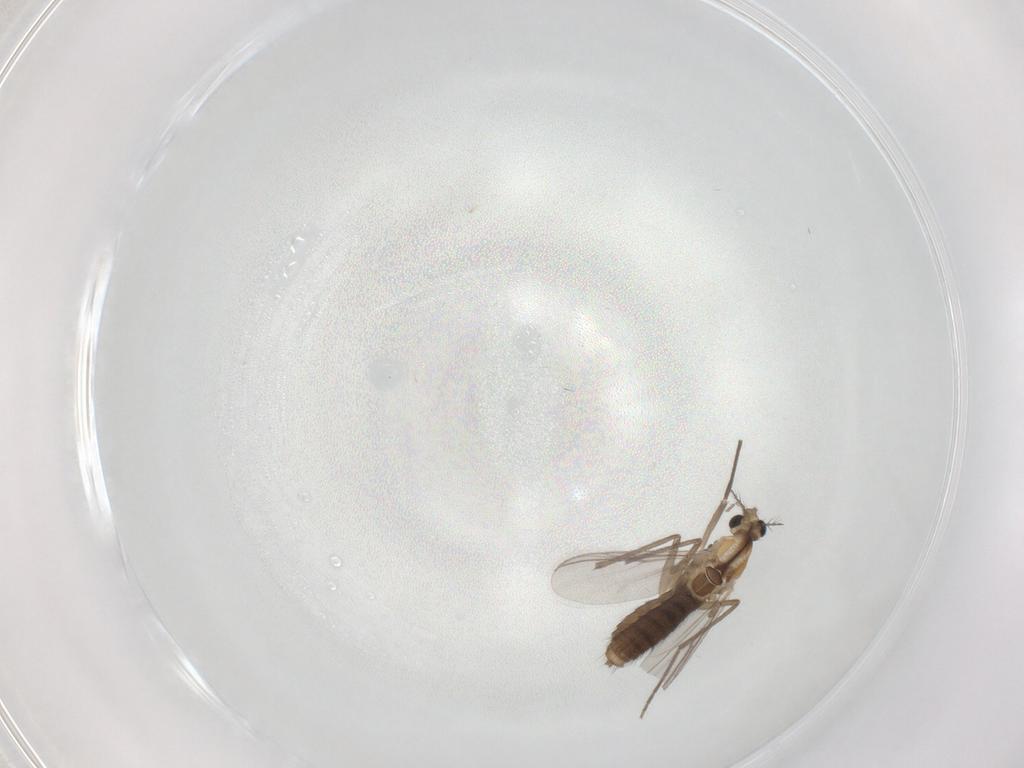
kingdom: Animalia
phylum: Arthropoda
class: Insecta
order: Diptera
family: Chironomidae
